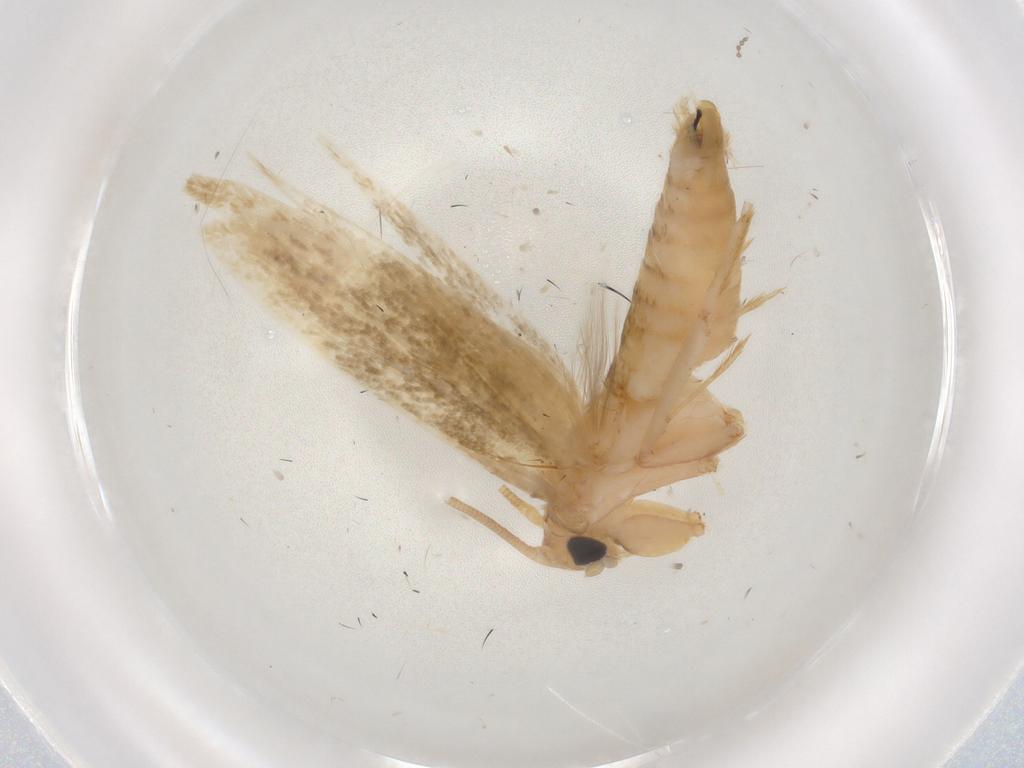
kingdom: Animalia
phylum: Arthropoda
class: Insecta
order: Lepidoptera
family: Tineidae
